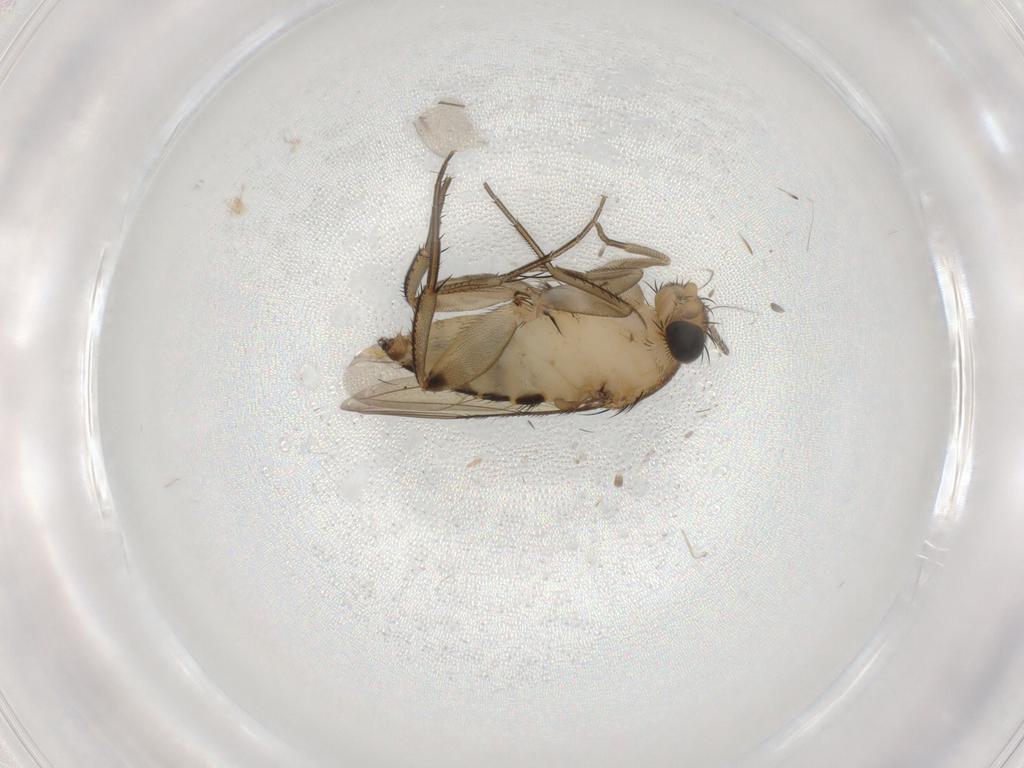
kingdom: Animalia
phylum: Arthropoda
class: Insecta
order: Diptera
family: Phoridae
